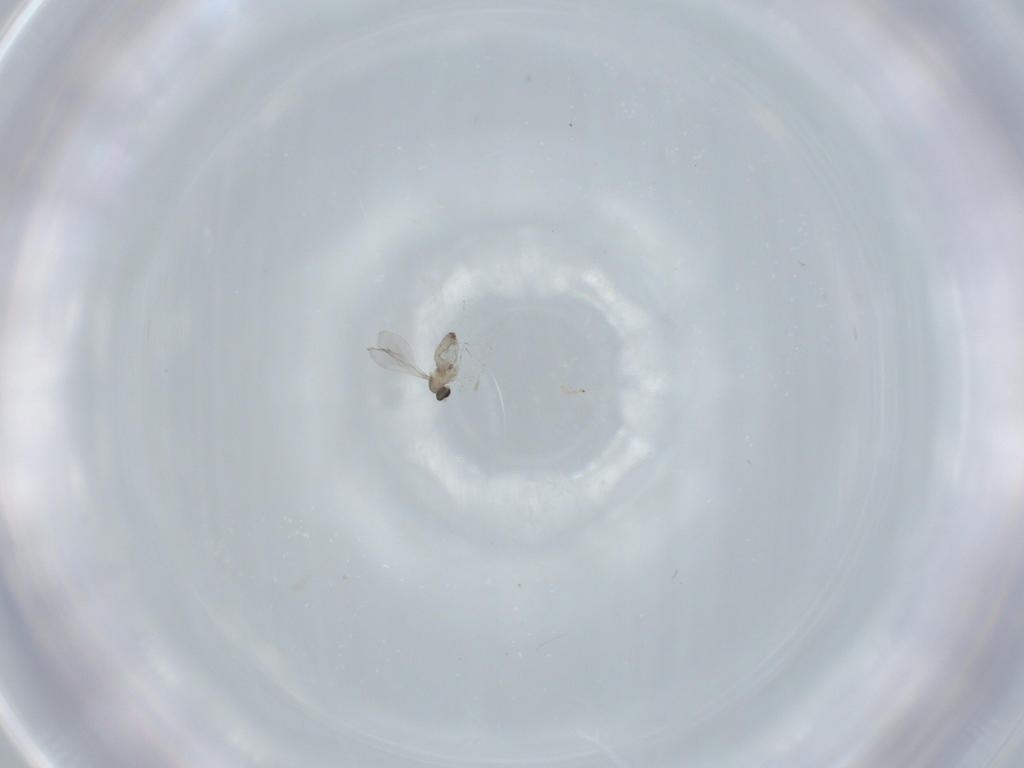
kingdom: Animalia
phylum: Arthropoda
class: Insecta
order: Diptera
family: Cecidomyiidae
